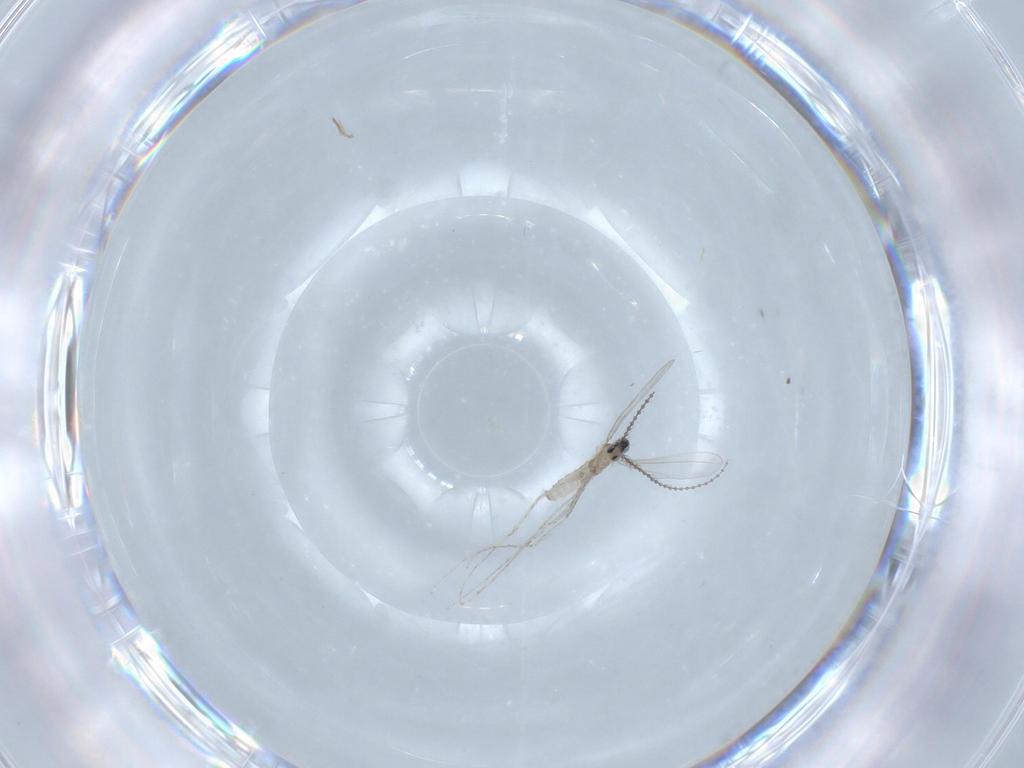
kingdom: Animalia
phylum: Arthropoda
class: Insecta
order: Diptera
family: Cecidomyiidae
